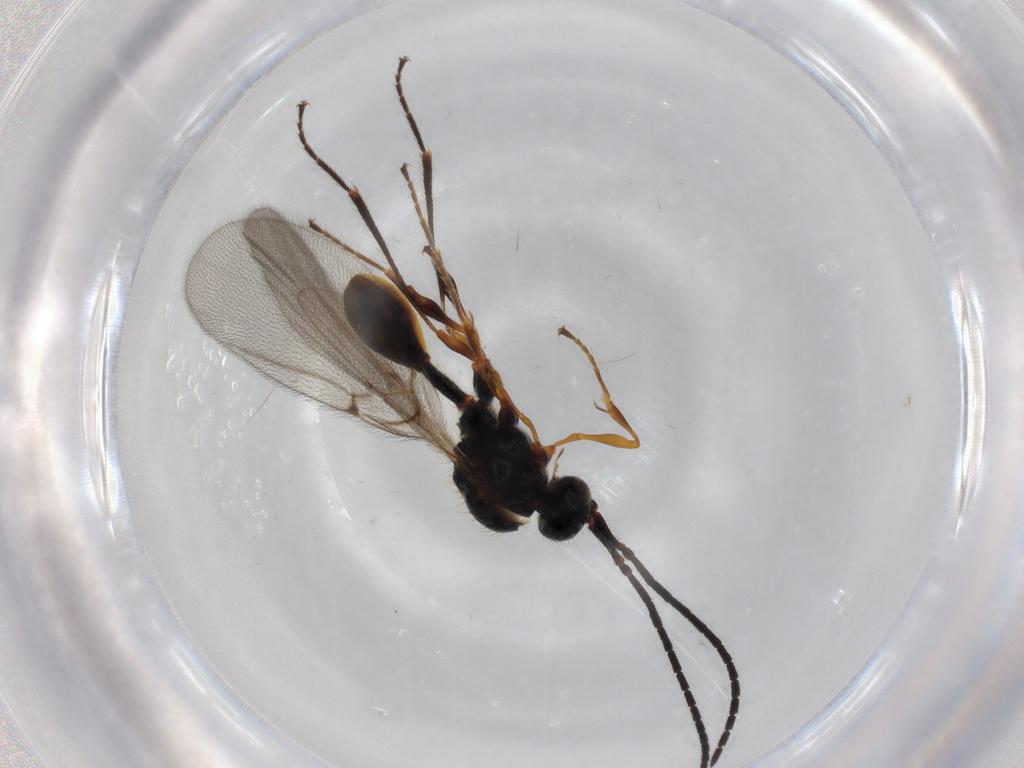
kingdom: Animalia
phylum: Arthropoda
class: Insecta
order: Hymenoptera
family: Diapriidae
